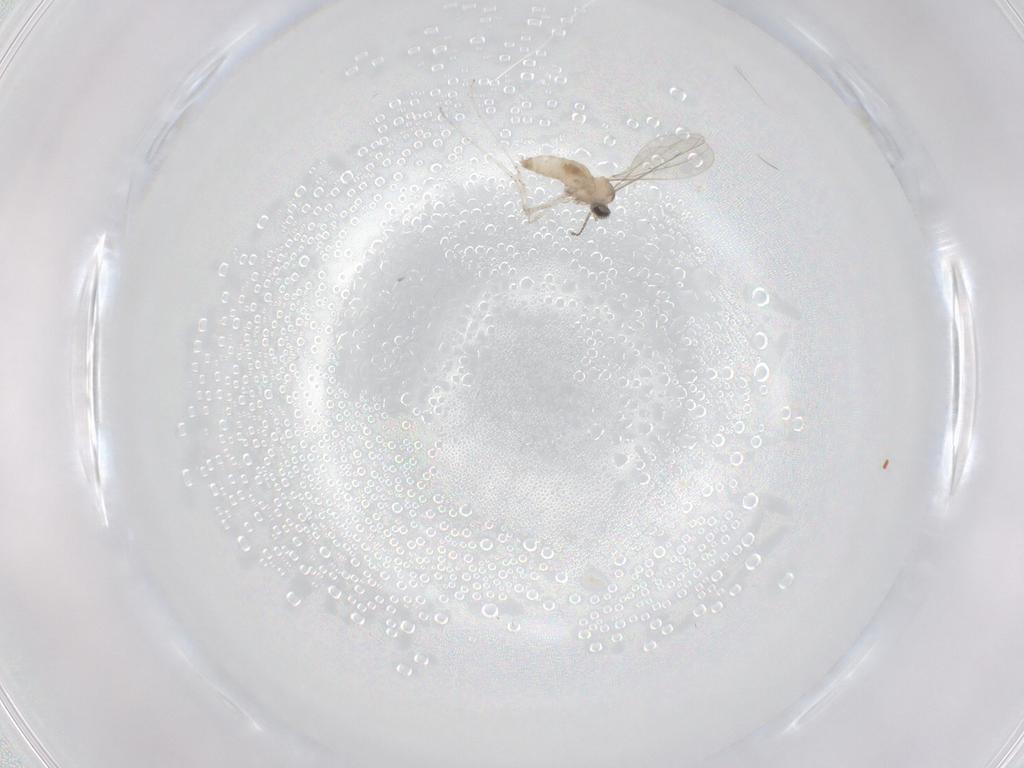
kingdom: Animalia
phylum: Arthropoda
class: Insecta
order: Diptera
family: Cecidomyiidae
